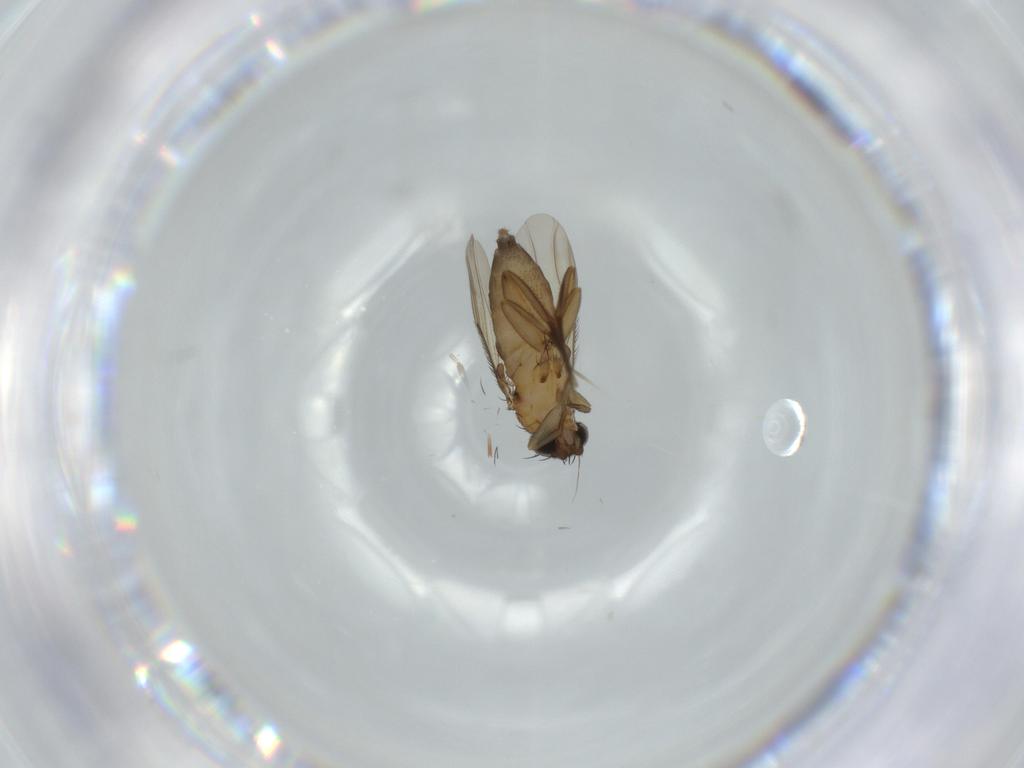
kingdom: Animalia
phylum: Arthropoda
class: Insecta
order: Diptera
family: Phoridae
